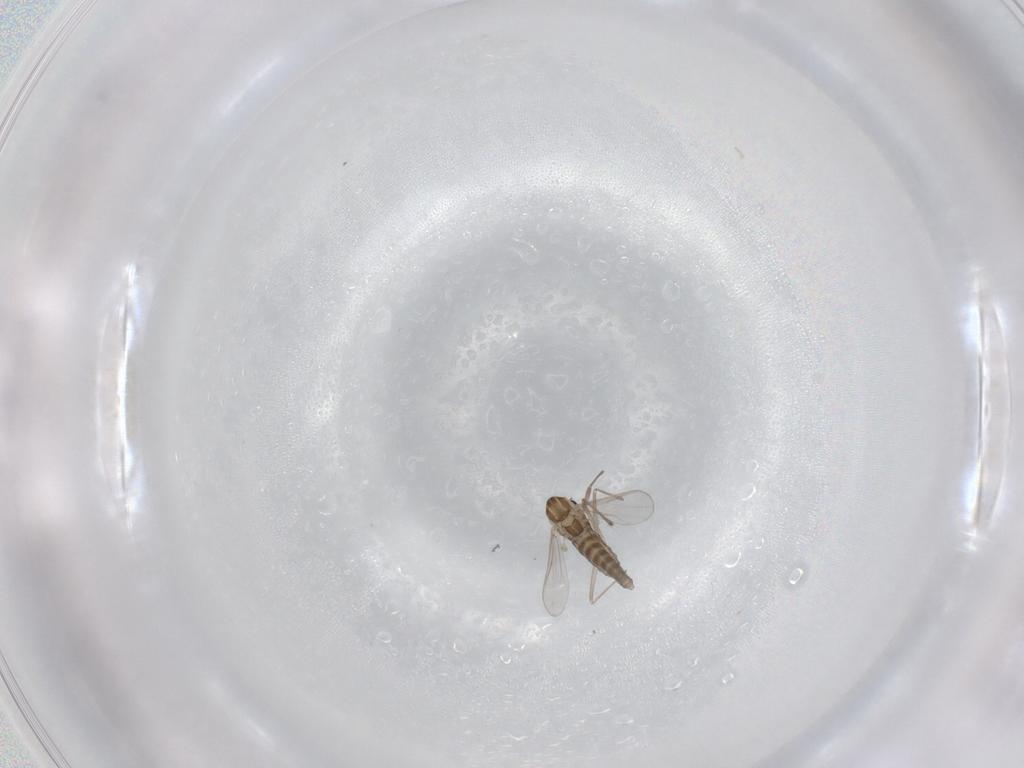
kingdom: Animalia
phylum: Arthropoda
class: Insecta
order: Diptera
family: Chironomidae
